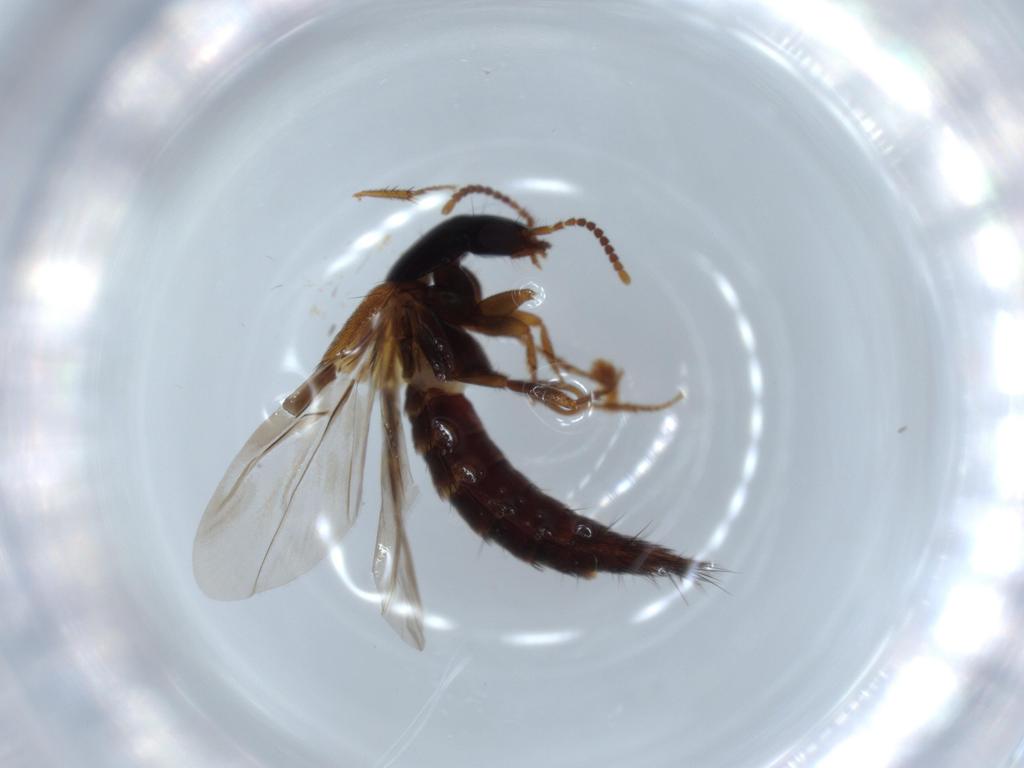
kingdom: Animalia
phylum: Arthropoda
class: Insecta
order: Coleoptera
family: Staphylinidae
